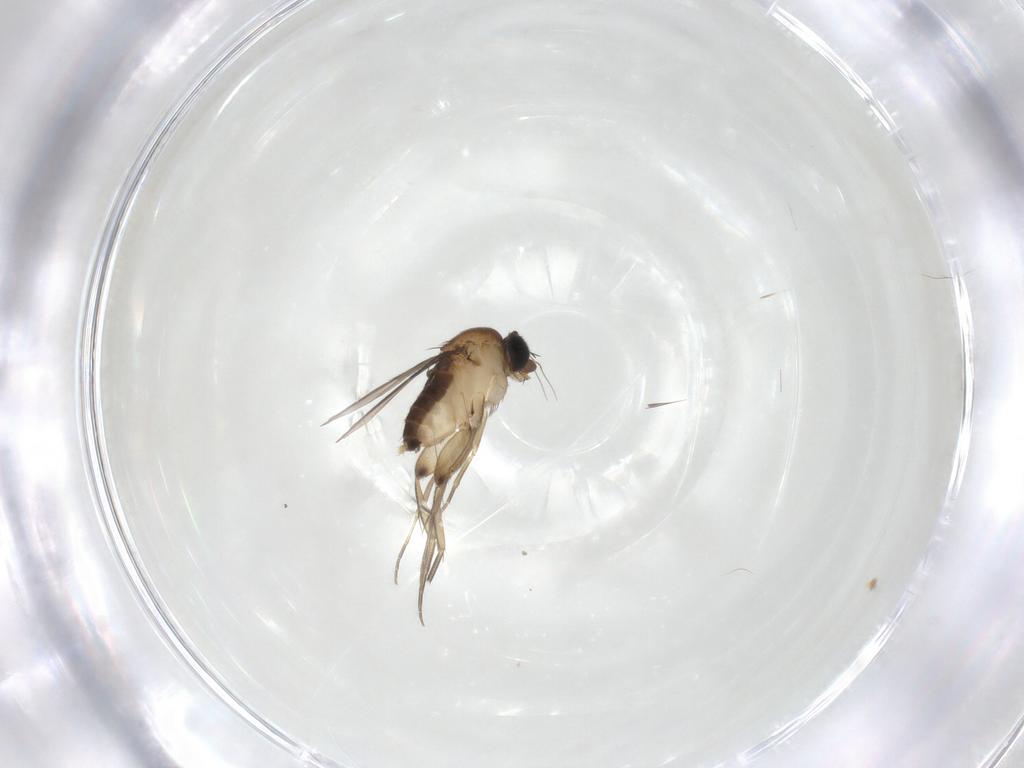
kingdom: Animalia
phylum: Arthropoda
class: Insecta
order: Diptera
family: Phoridae
